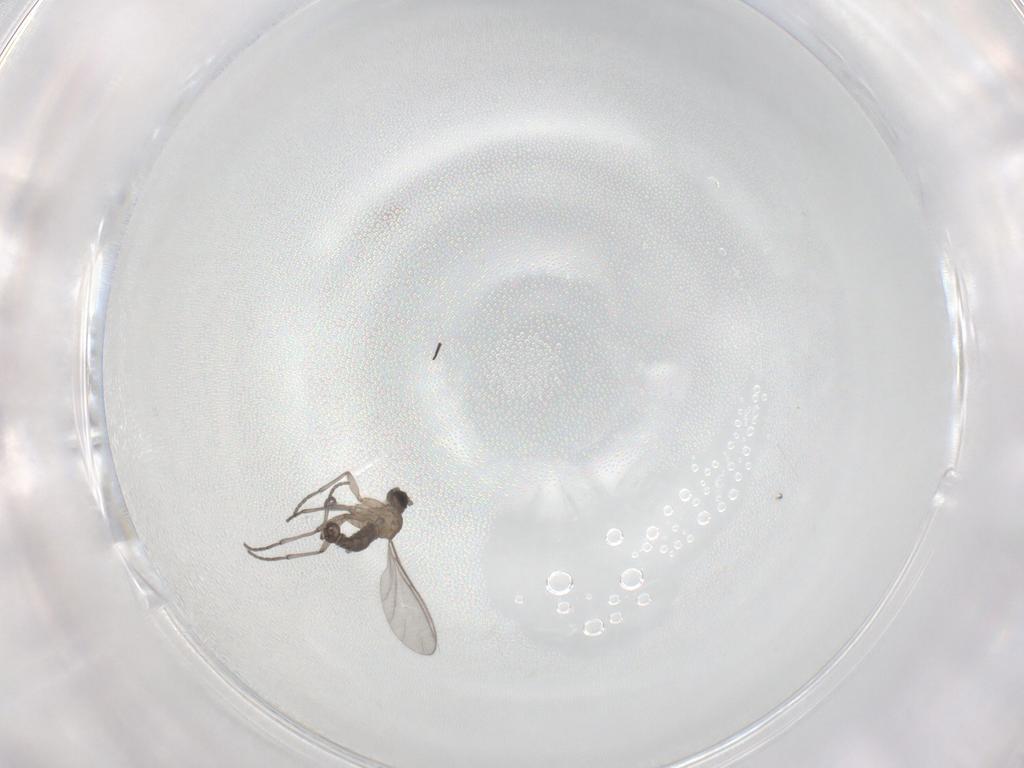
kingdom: Animalia
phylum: Arthropoda
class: Insecta
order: Diptera
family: Sciaridae
